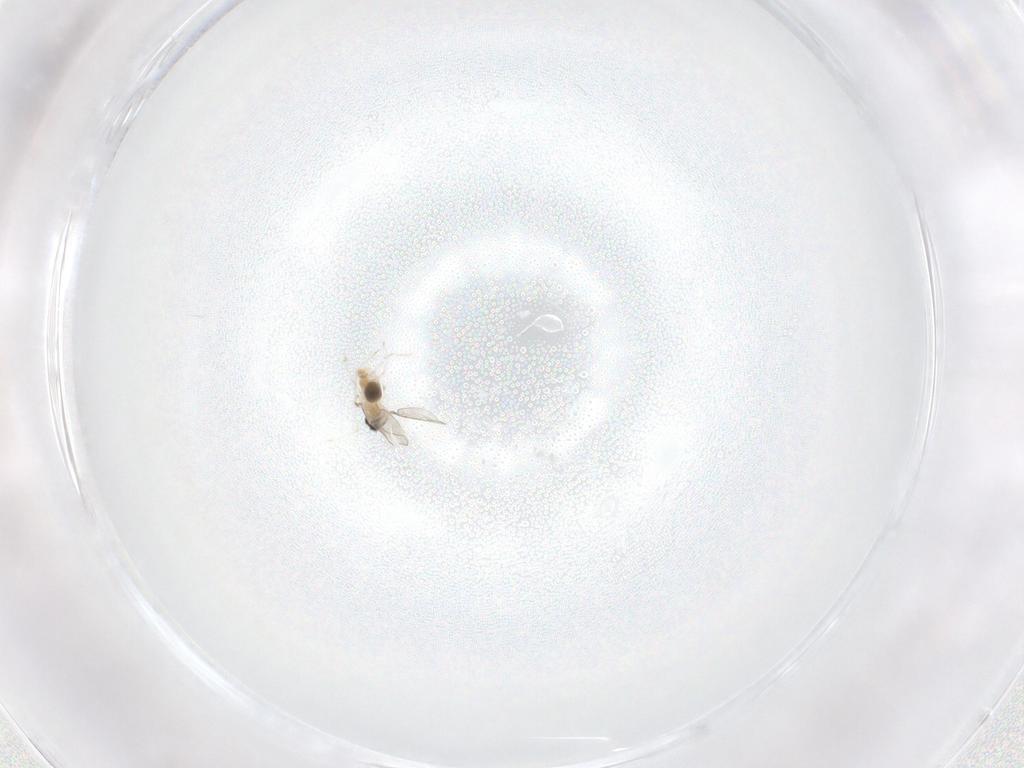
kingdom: Animalia
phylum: Arthropoda
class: Insecta
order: Diptera
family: Cecidomyiidae
